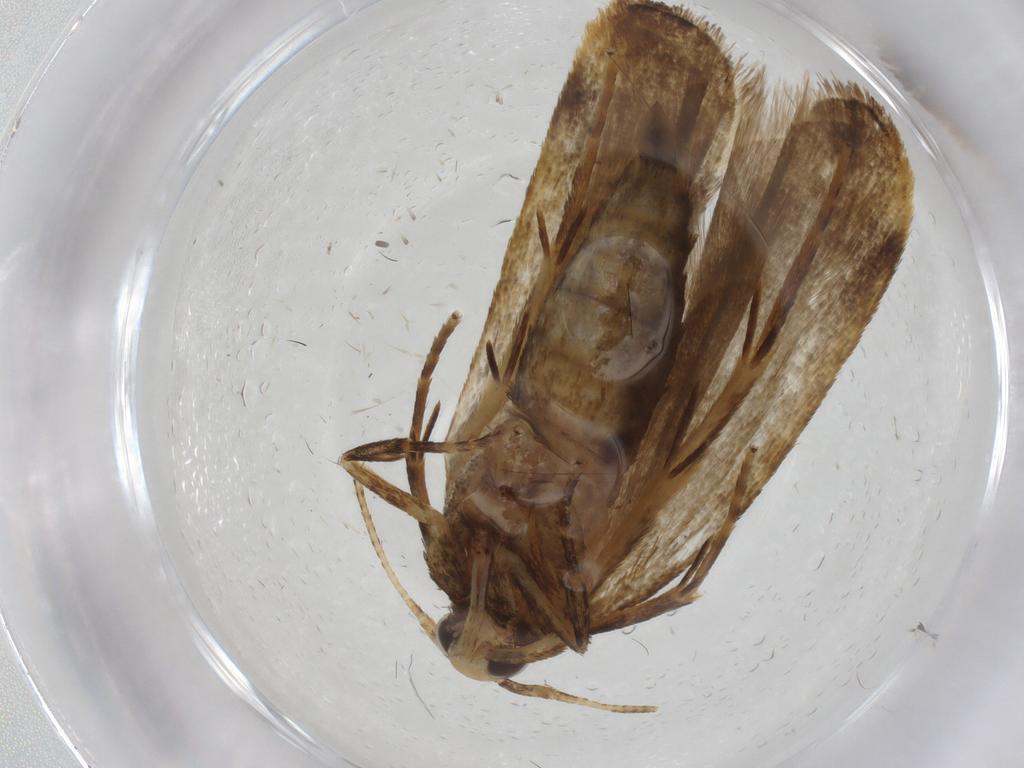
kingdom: Animalia
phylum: Arthropoda
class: Insecta
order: Lepidoptera
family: Autostichidae
